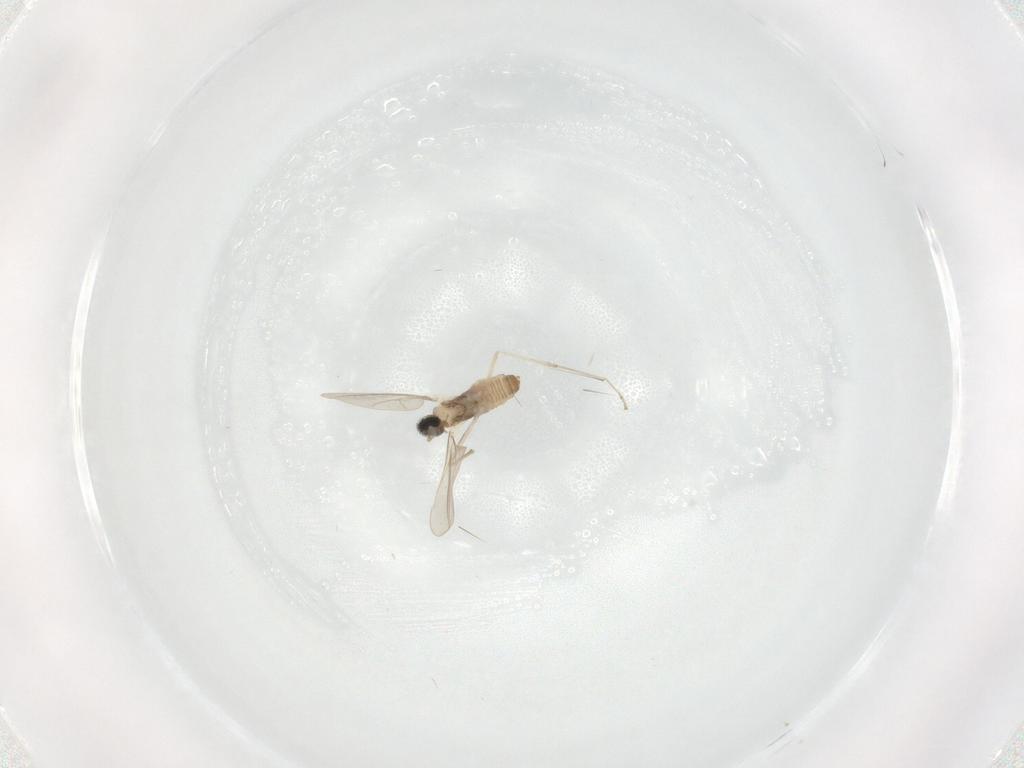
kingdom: Animalia
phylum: Arthropoda
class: Insecta
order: Diptera
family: Cecidomyiidae
